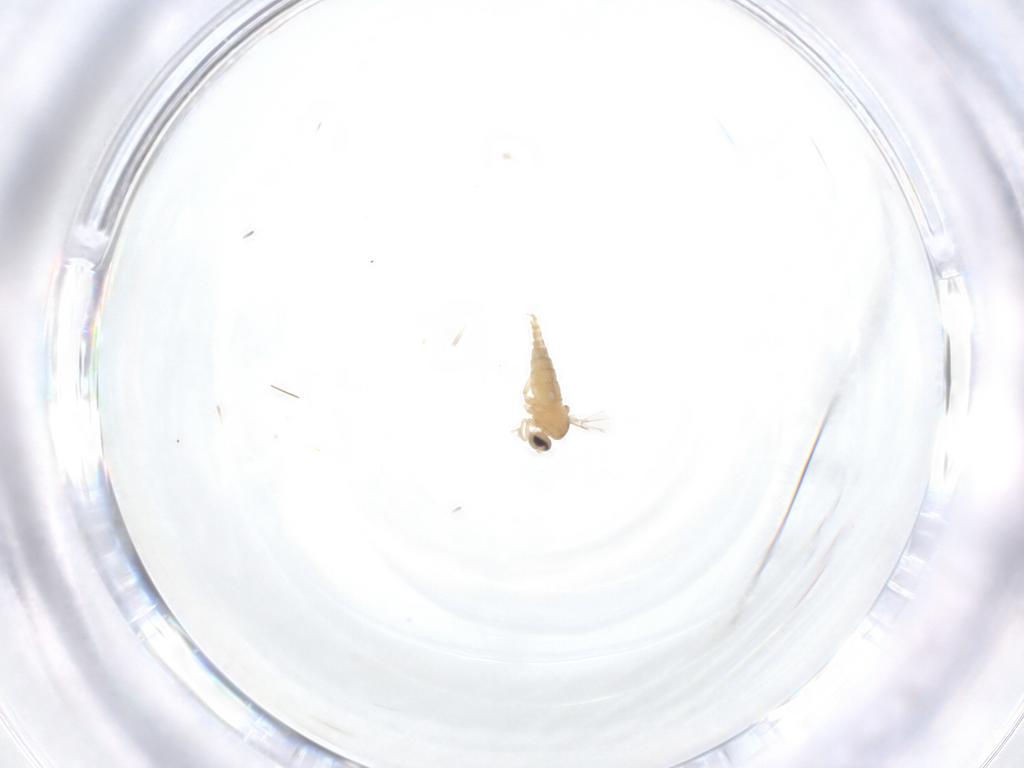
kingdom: Animalia
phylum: Arthropoda
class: Insecta
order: Diptera
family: Cecidomyiidae
